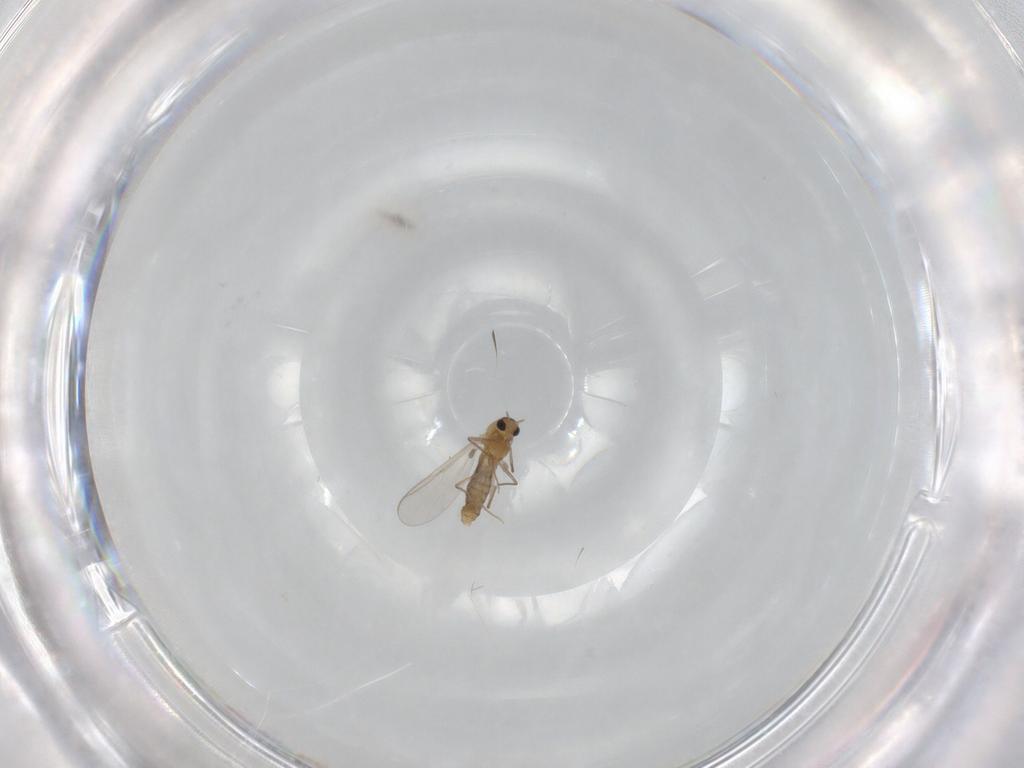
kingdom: Animalia
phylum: Arthropoda
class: Insecta
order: Diptera
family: Chironomidae
